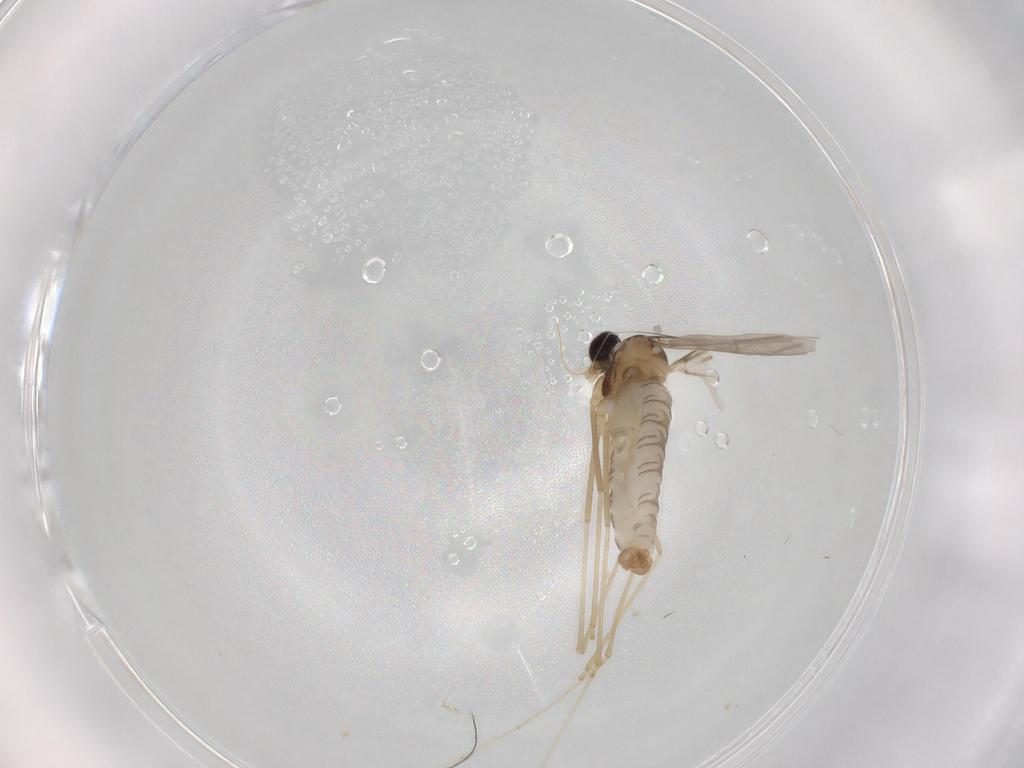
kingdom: Animalia
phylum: Arthropoda
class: Insecta
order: Diptera
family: Cecidomyiidae
